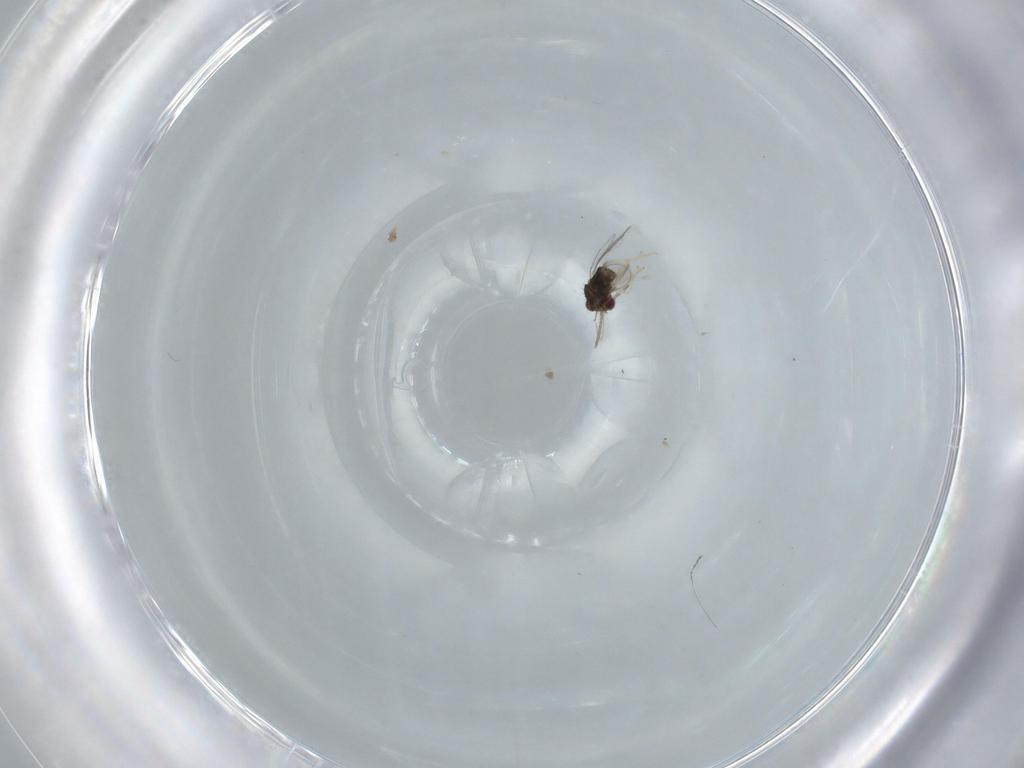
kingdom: Animalia
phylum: Arthropoda
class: Insecta
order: Hymenoptera
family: Aphelinidae
